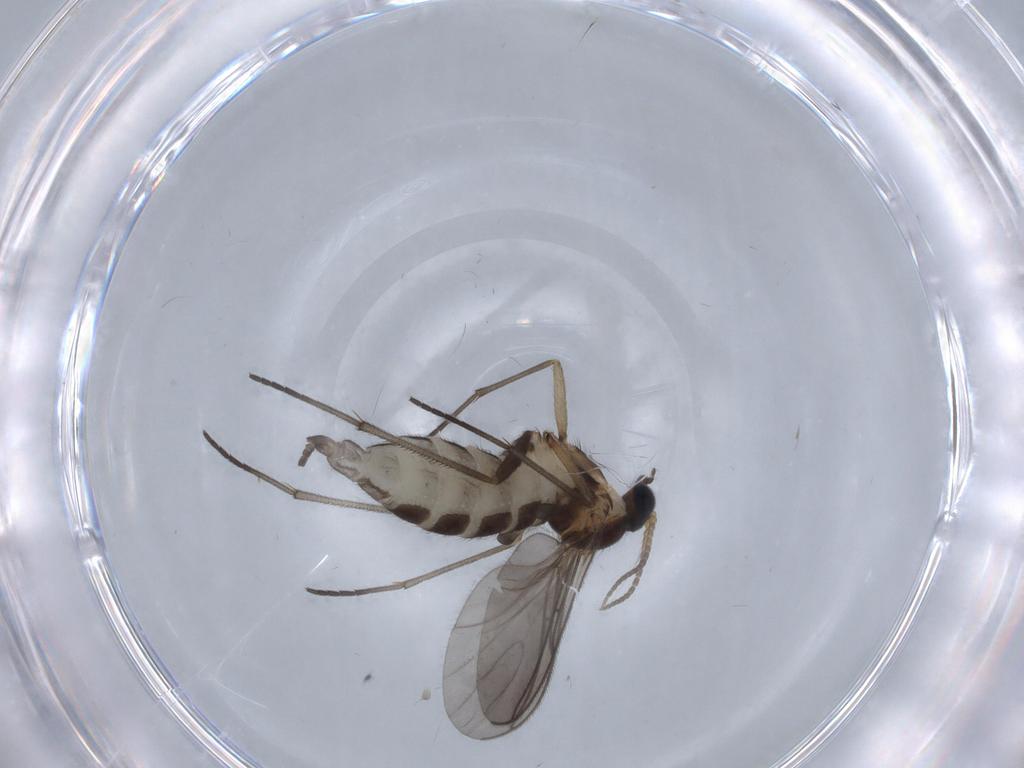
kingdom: Animalia
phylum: Arthropoda
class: Insecta
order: Diptera
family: Sciaridae
